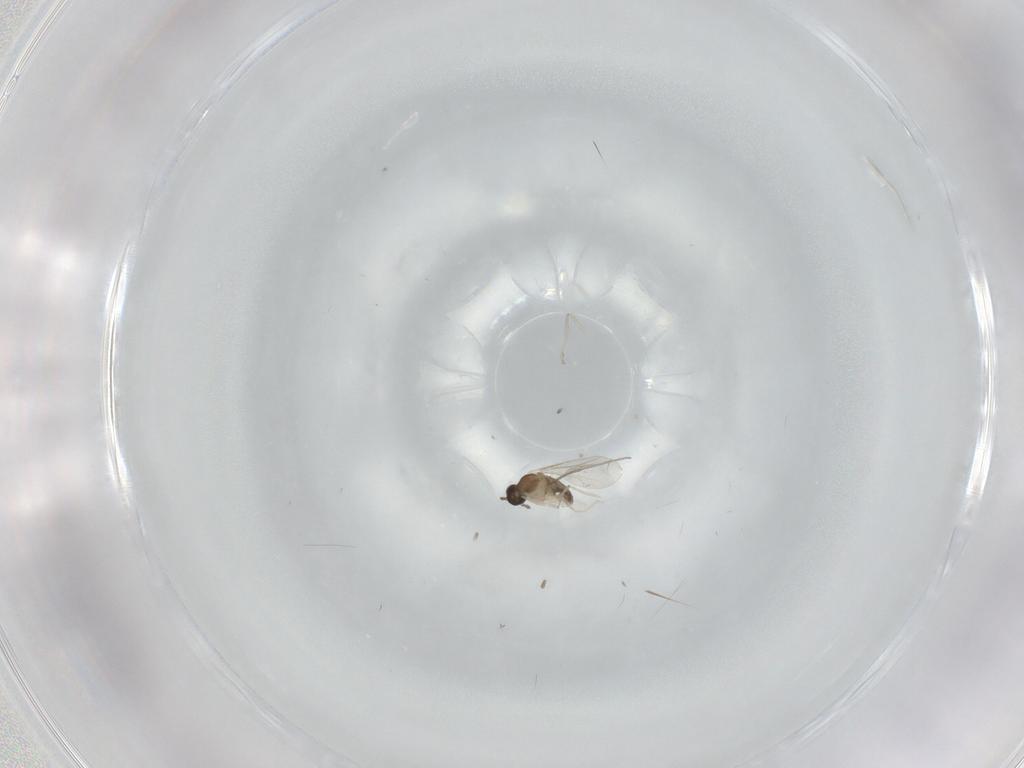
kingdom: Animalia
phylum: Arthropoda
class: Insecta
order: Diptera
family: Cecidomyiidae
